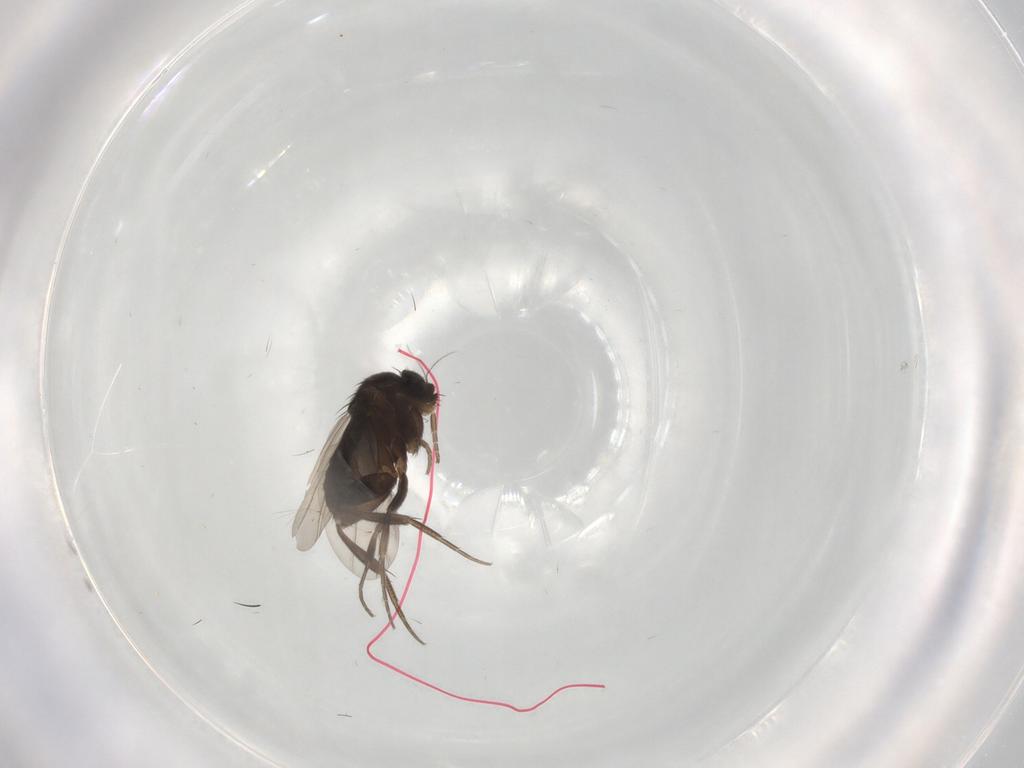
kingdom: Animalia
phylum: Arthropoda
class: Insecta
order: Diptera
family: Phoridae
